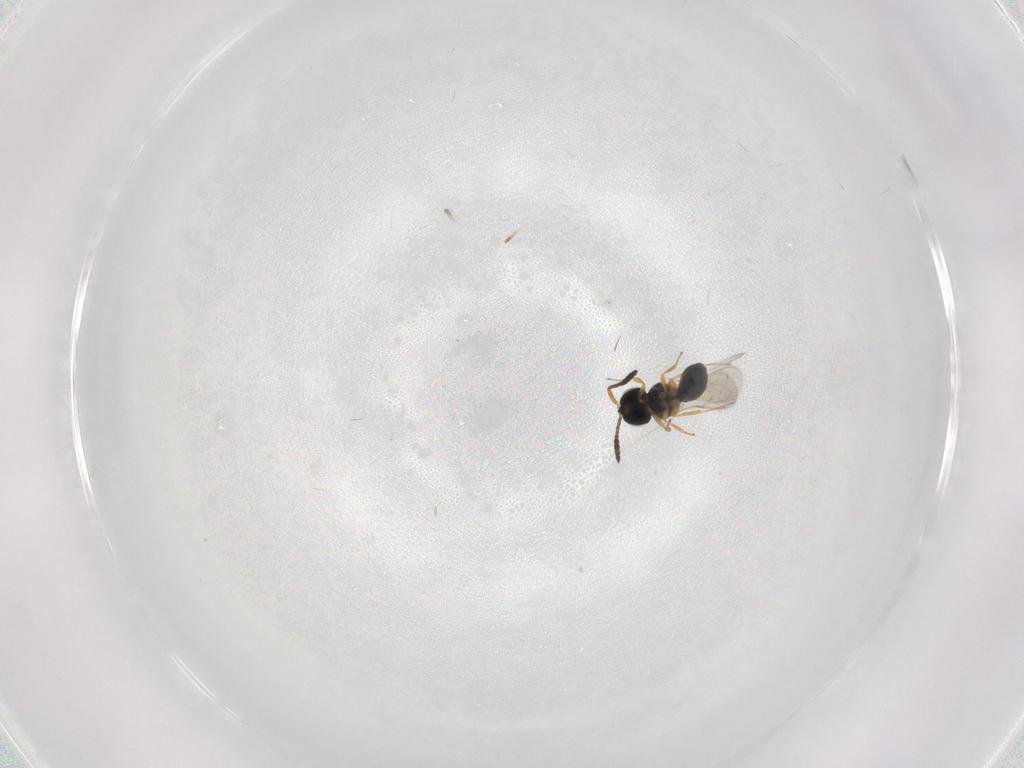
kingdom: Animalia
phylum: Arthropoda
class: Insecta
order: Hymenoptera
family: Scelionidae
